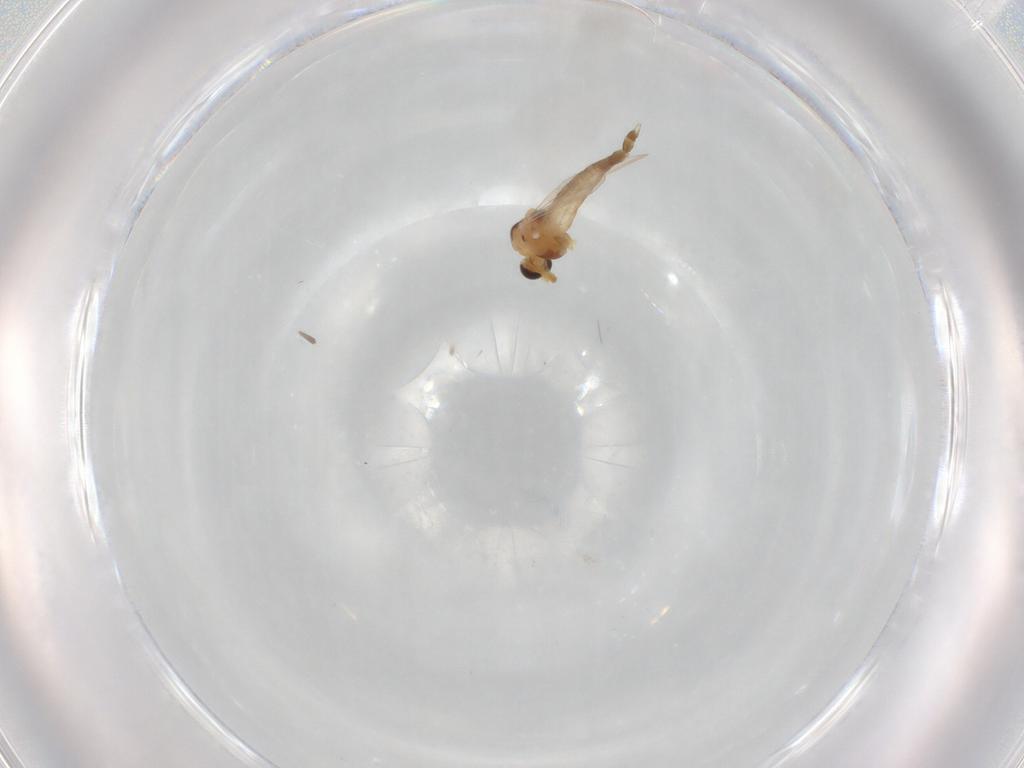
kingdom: Animalia
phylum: Arthropoda
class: Insecta
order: Diptera
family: Chironomidae
